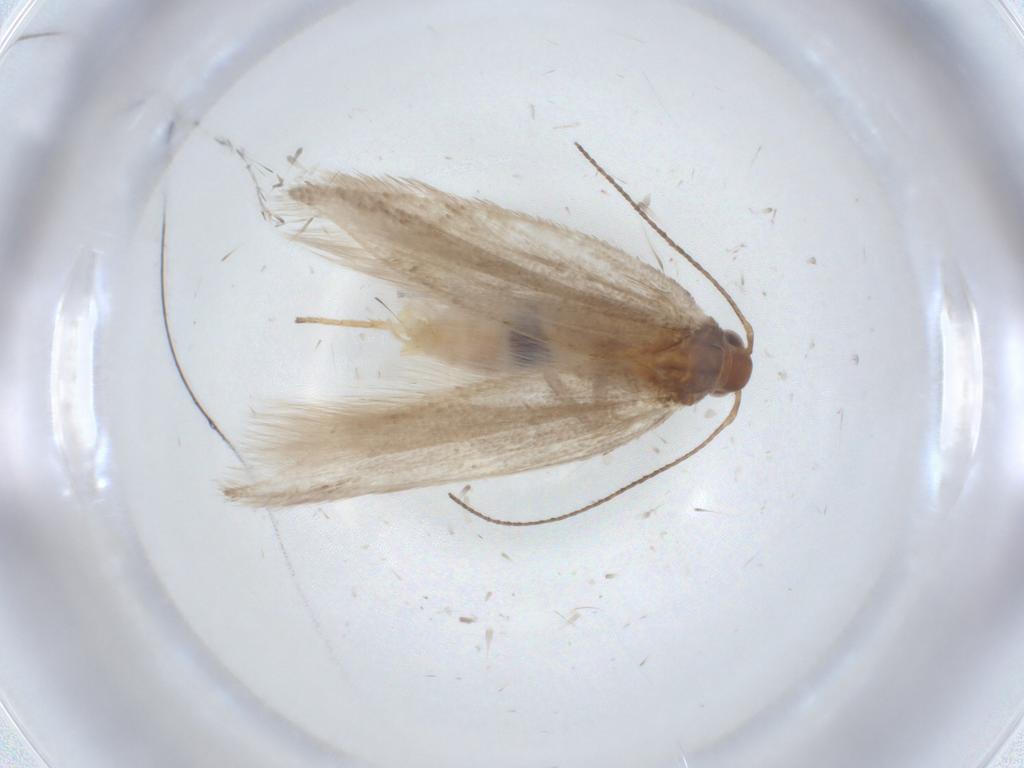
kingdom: Animalia
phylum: Arthropoda
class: Insecta
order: Lepidoptera
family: Gelechiidae
